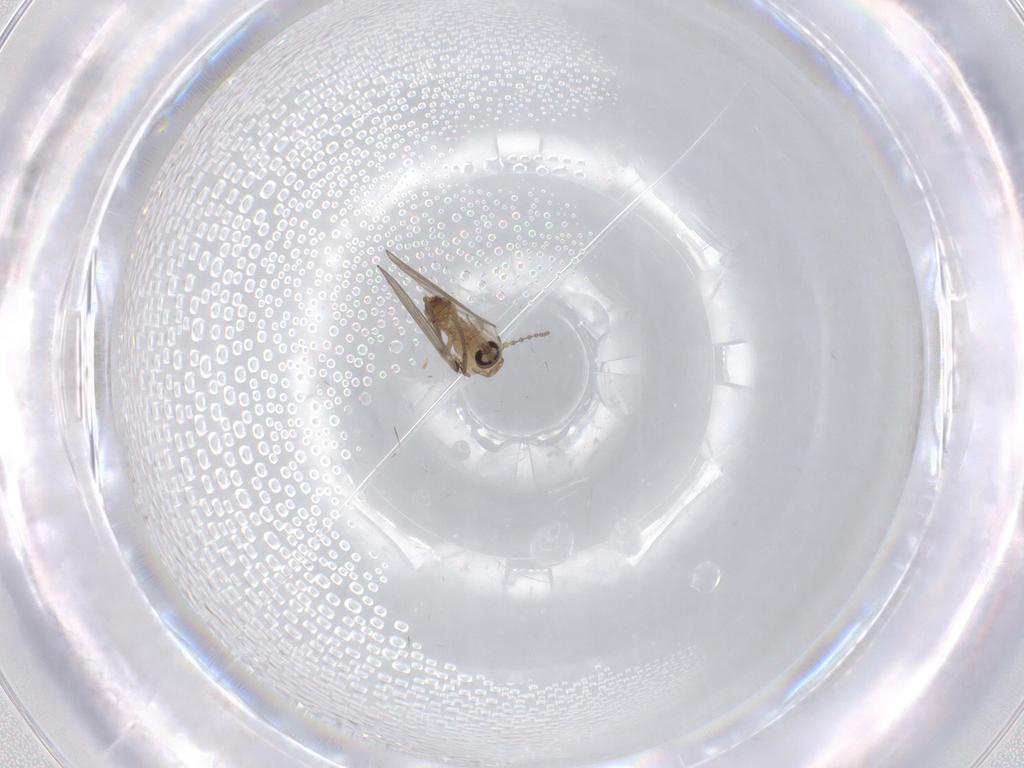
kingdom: Animalia
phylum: Arthropoda
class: Insecta
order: Diptera
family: Psychodidae
